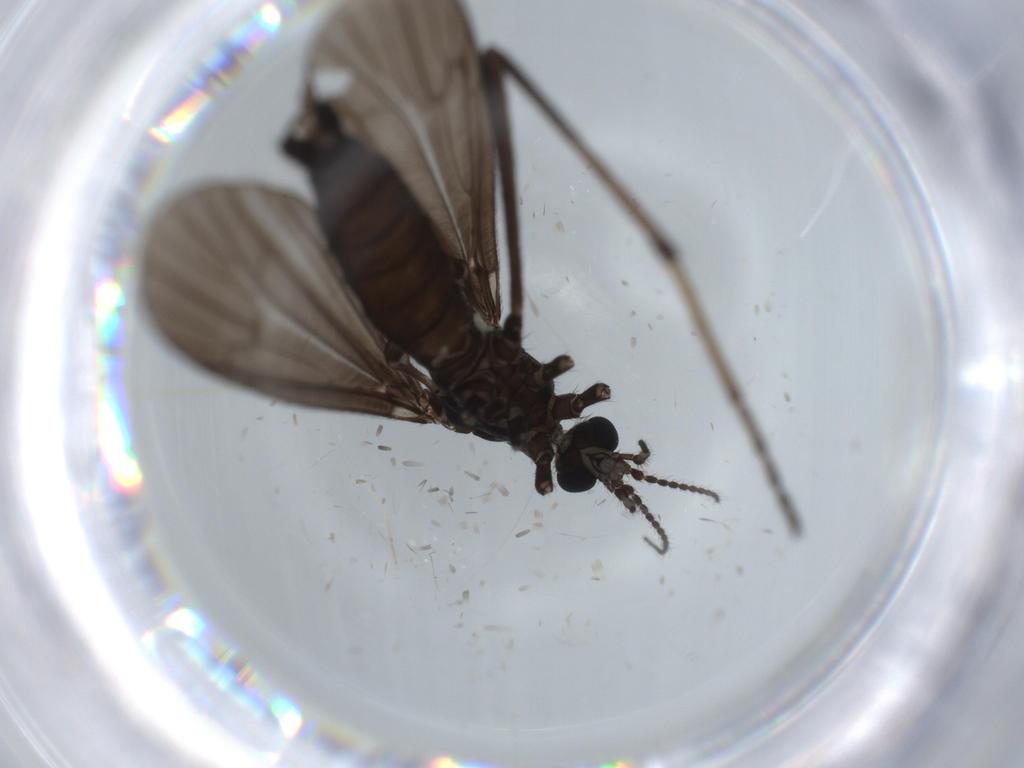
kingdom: Animalia
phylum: Arthropoda
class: Insecta
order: Diptera
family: Limoniidae
